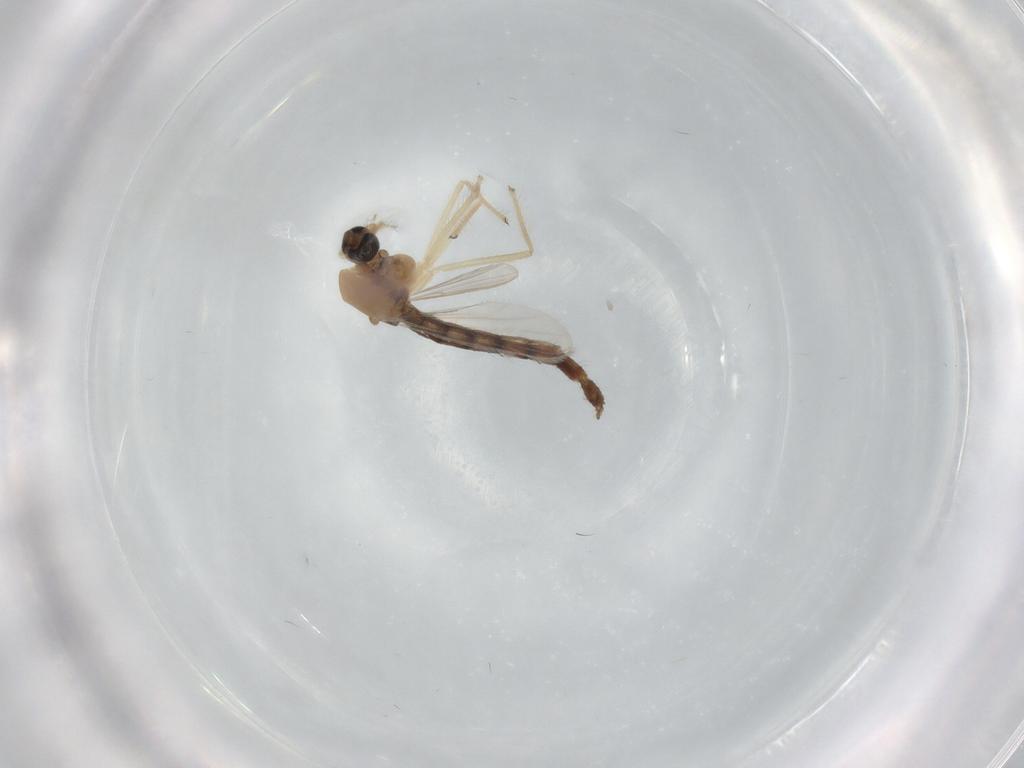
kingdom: Animalia
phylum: Arthropoda
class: Insecta
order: Diptera
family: Chironomidae
